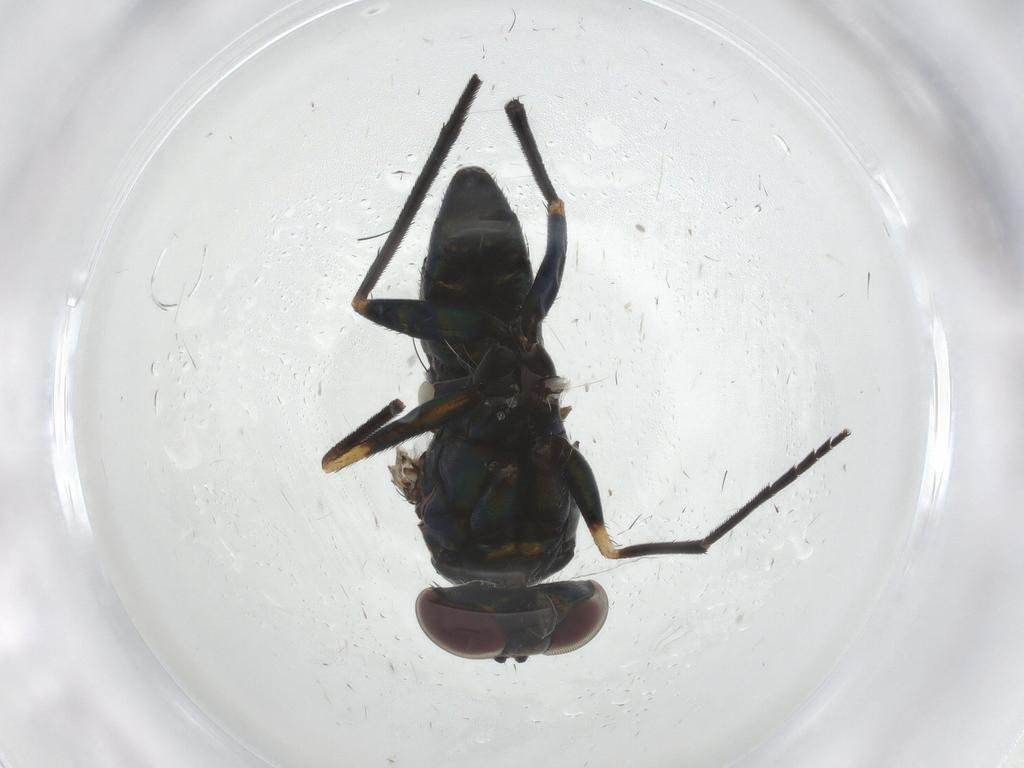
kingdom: Animalia
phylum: Arthropoda
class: Insecta
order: Diptera
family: Dolichopodidae
